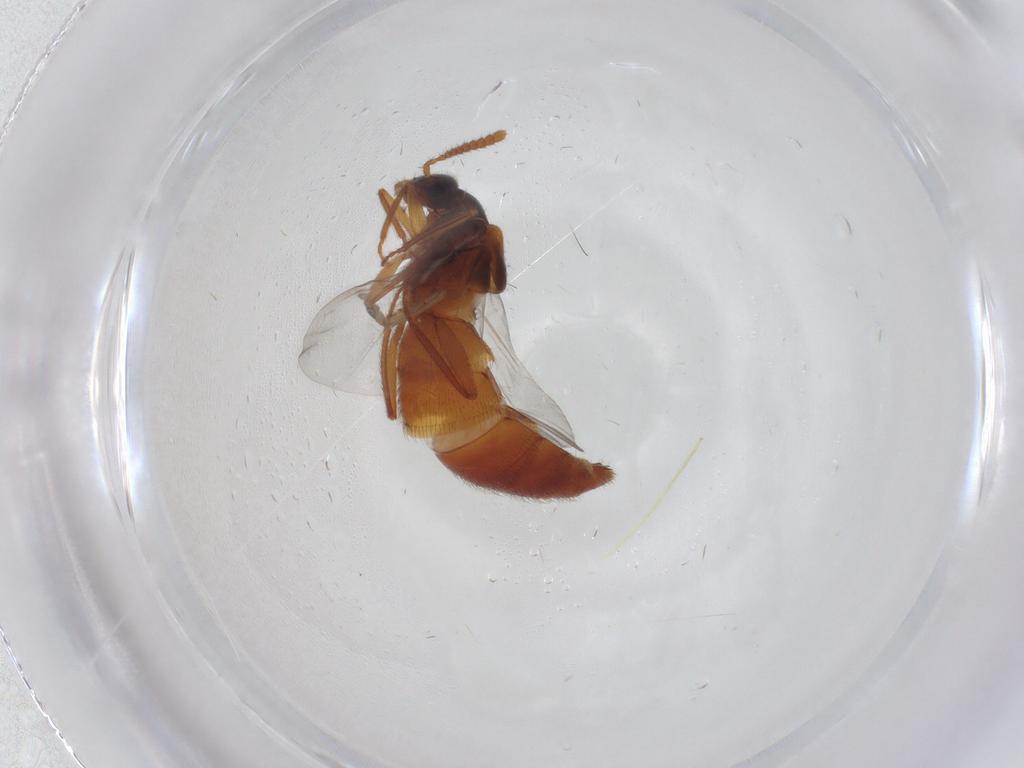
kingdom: Animalia
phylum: Arthropoda
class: Insecta
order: Coleoptera
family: Staphylinidae
